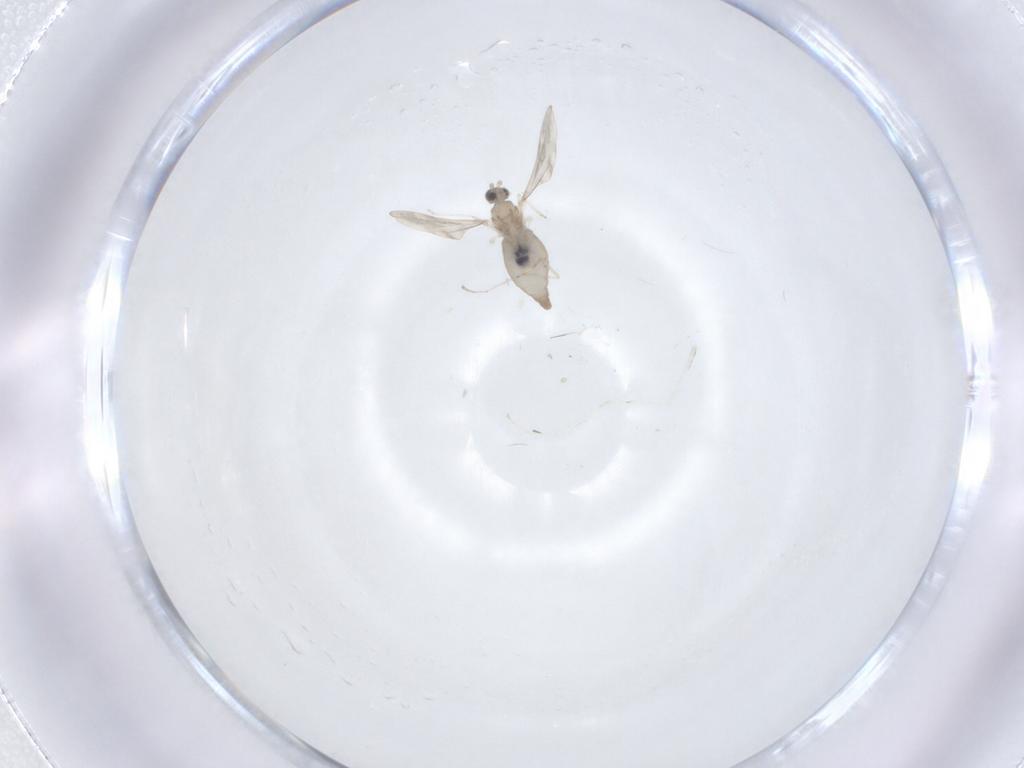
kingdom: Animalia
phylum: Arthropoda
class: Insecta
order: Diptera
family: Cecidomyiidae
